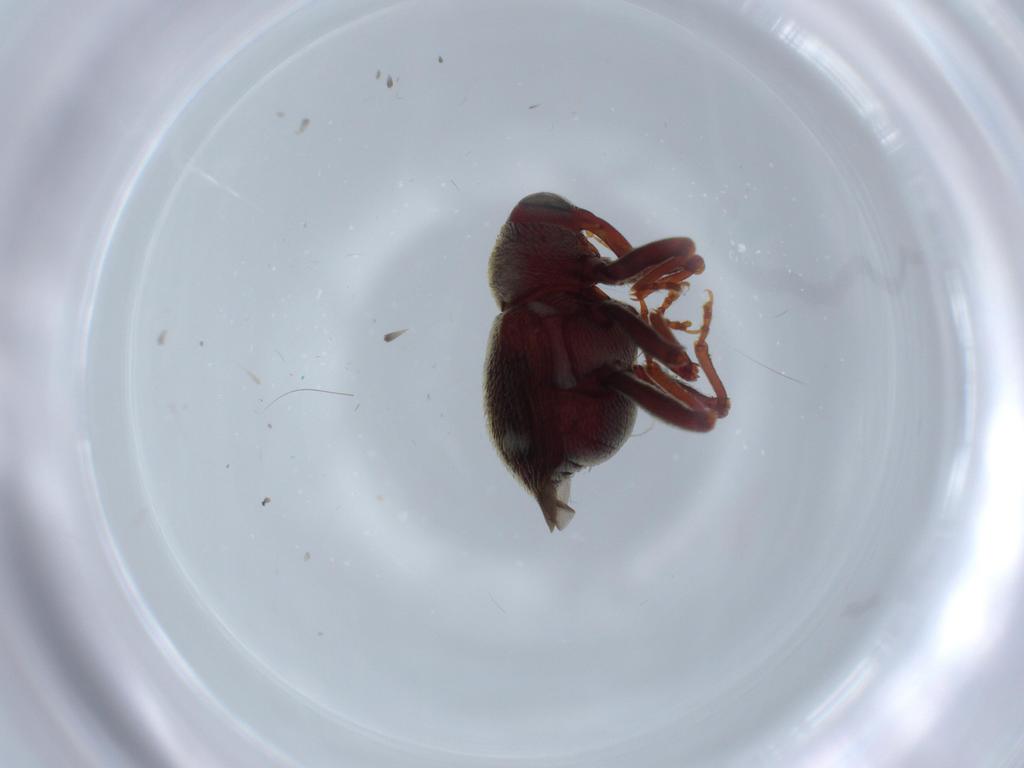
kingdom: Animalia
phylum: Arthropoda
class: Insecta
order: Coleoptera
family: Curculionidae
